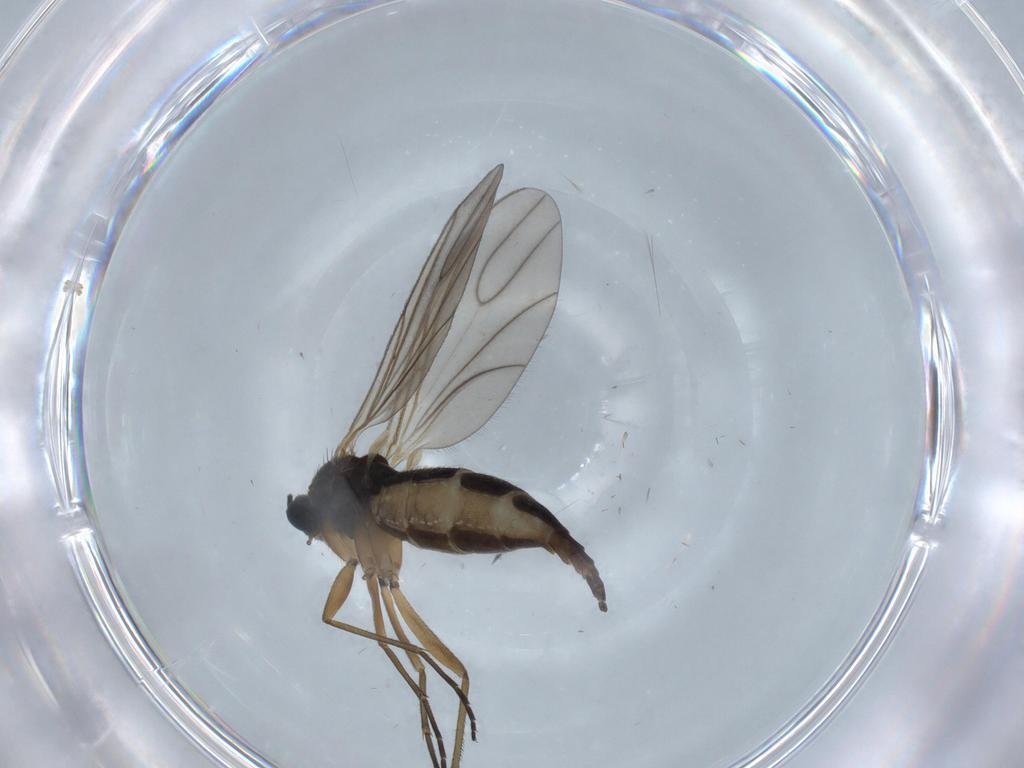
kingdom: Animalia
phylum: Arthropoda
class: Insecta
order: Diptera
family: Sciaridae
